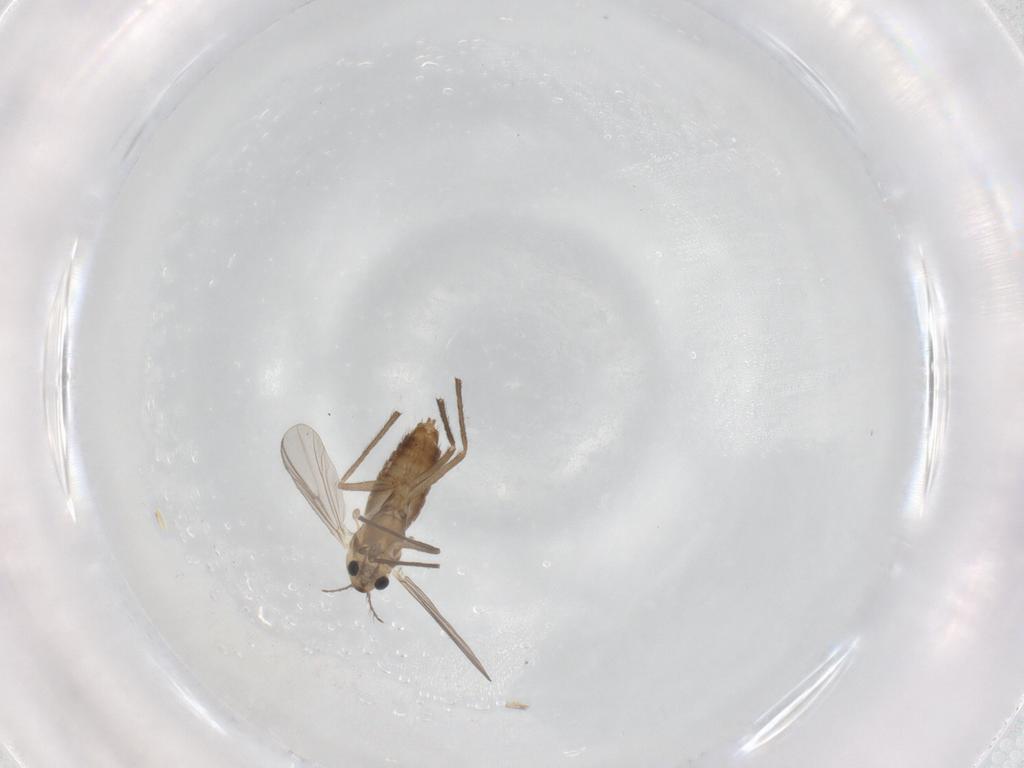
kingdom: Animalia
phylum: Arthropoda
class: Insecta
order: Diptera
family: Chironomidae
